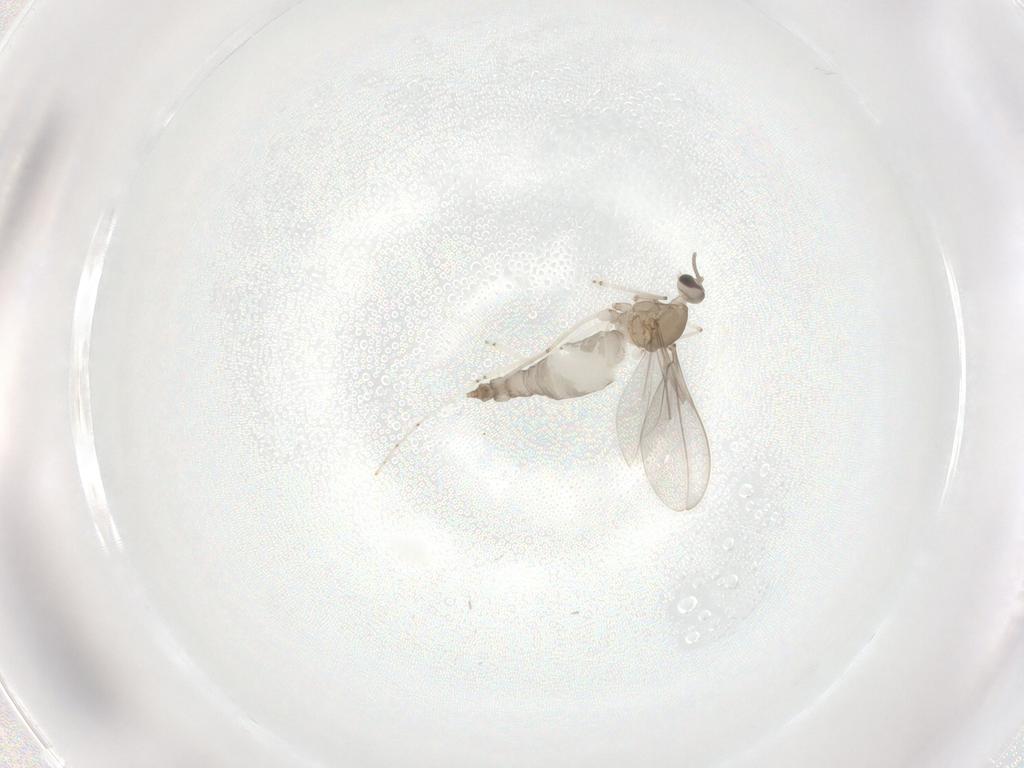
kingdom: Animalia
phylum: Arthropoda
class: Insecta
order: Diptera
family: Cecidomyiidae
